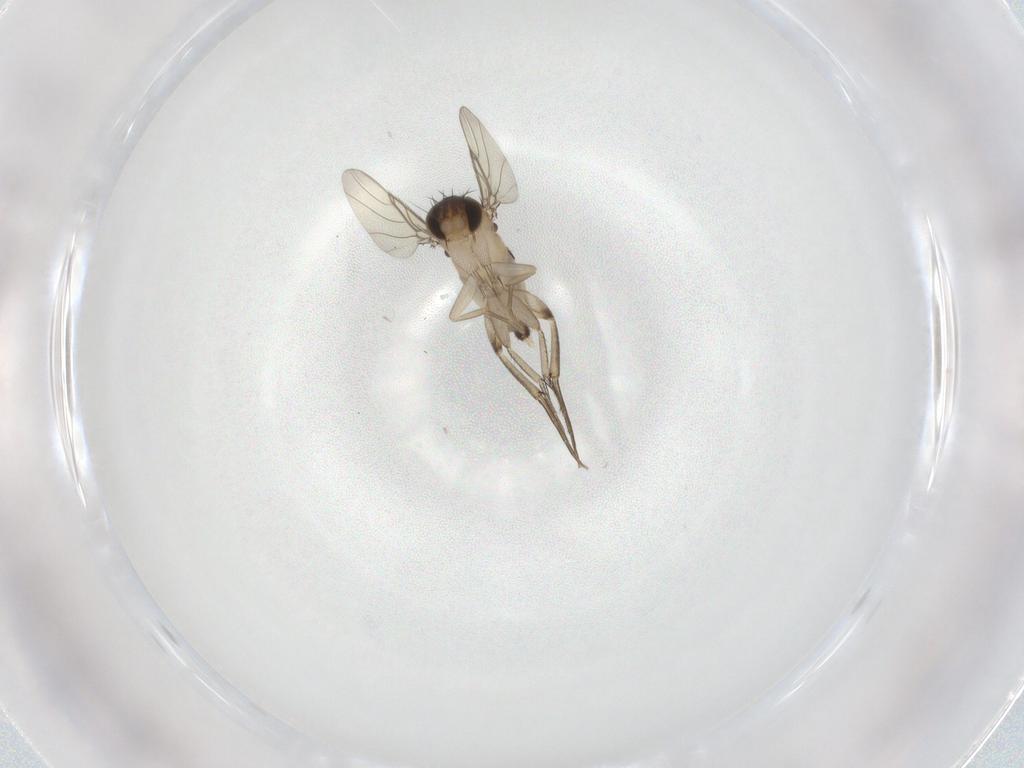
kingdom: Animalia
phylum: Arthropoda
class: Insecta
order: Diptera
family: Phoridae
